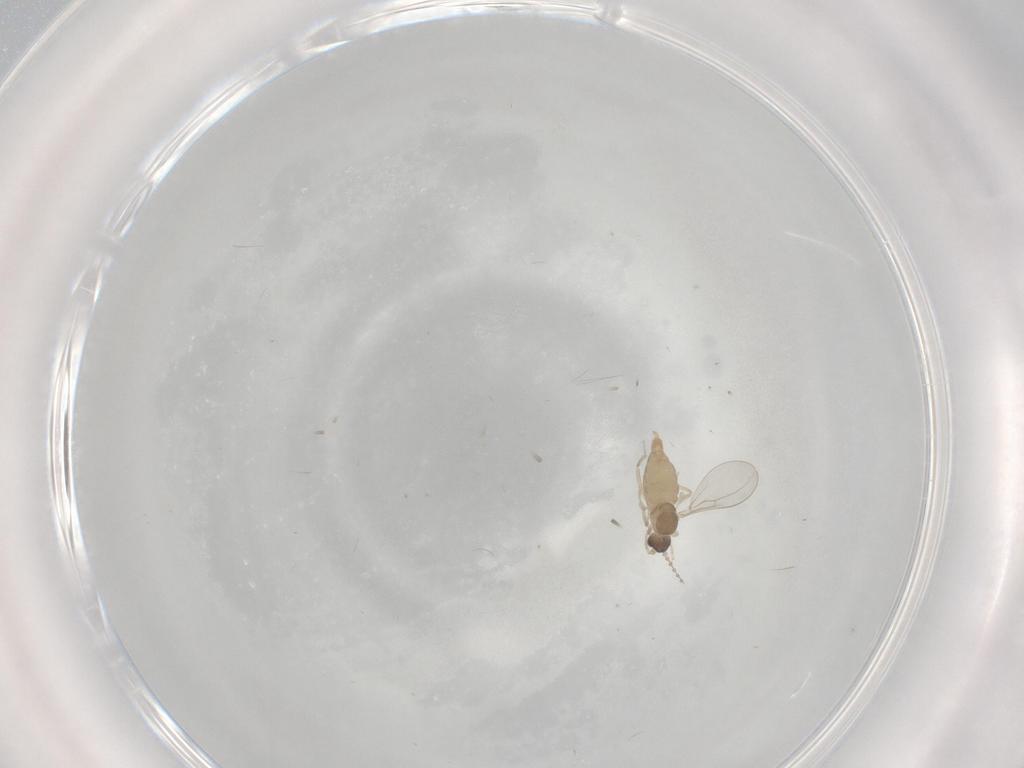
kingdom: Animalia
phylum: Arthropoda
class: Insecta
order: Diptera
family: Cecidomyiidae
